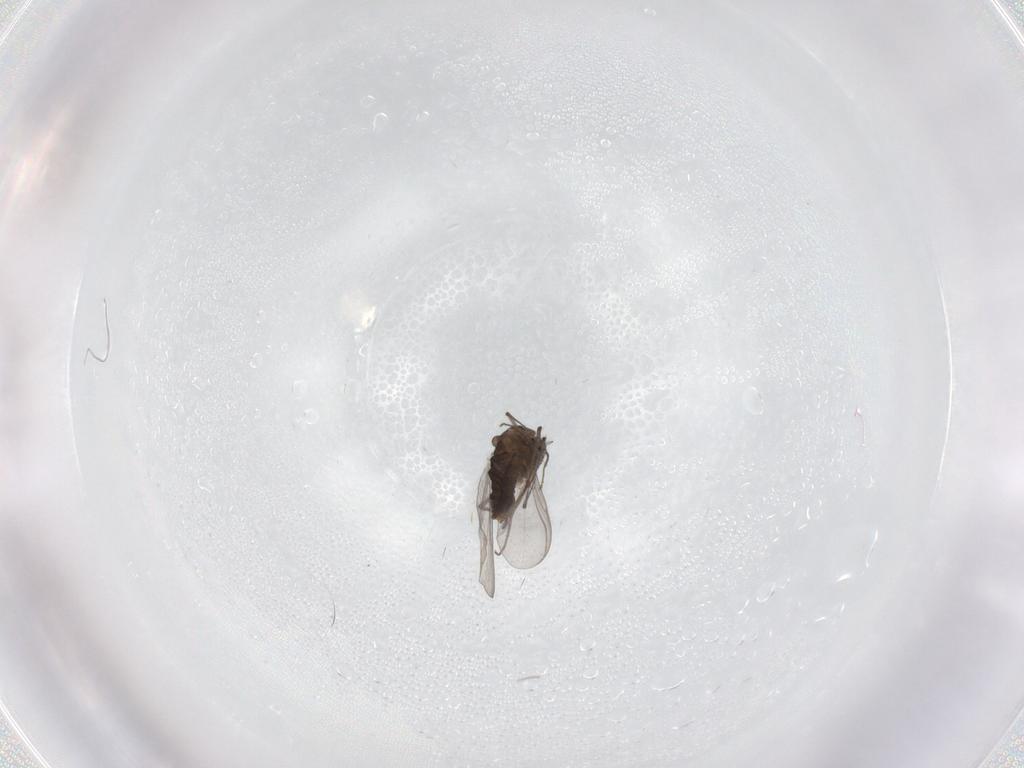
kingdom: Animalia
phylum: Arthropoda
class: Insecta
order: Diptera
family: Chironomidae
